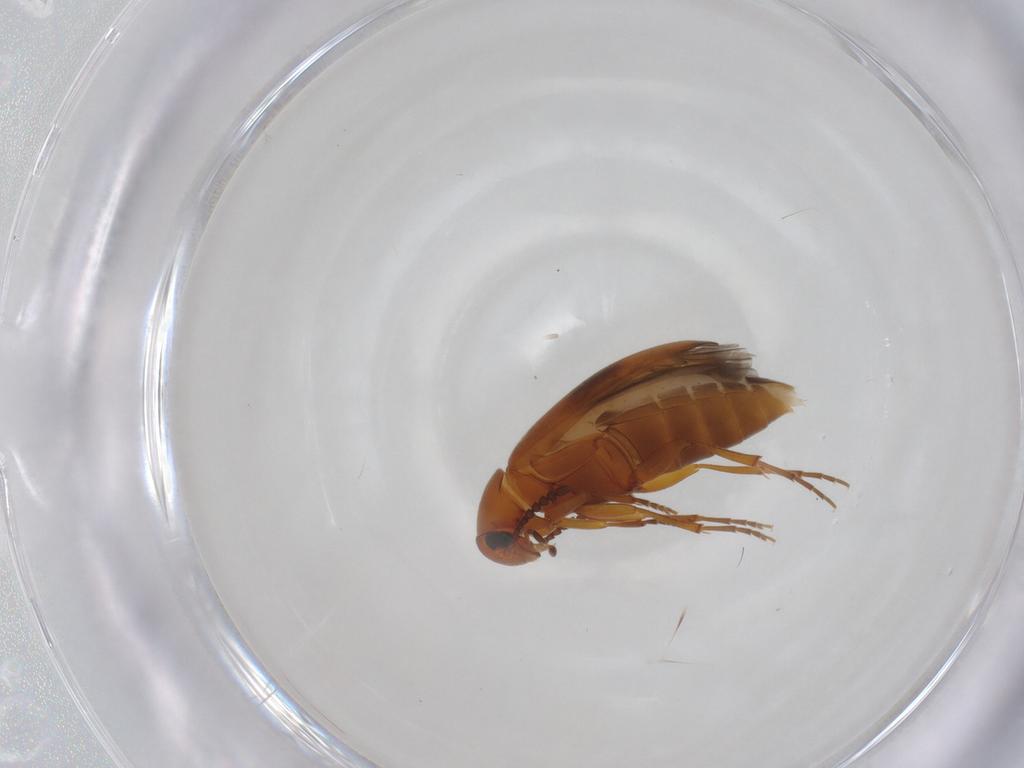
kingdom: Animalia
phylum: Arthropoda
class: Insecta
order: Coleoptera
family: Scraptiidae
